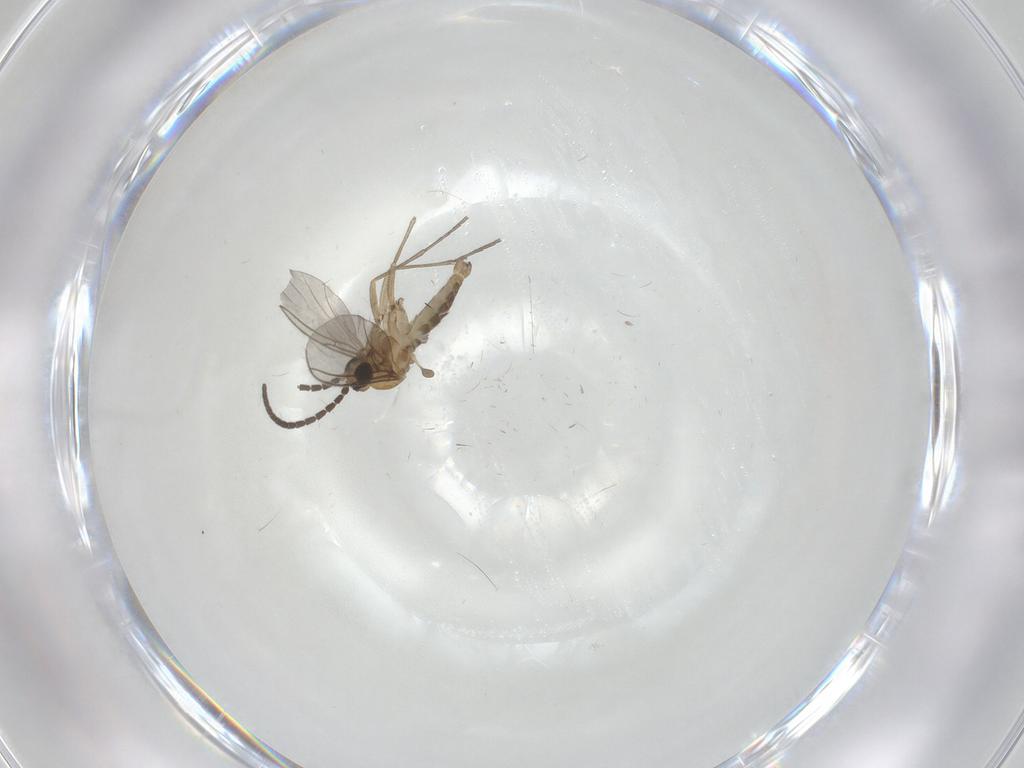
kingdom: Animalia
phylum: Arthropoda
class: Insecta
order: Diptera
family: Sciaridae
